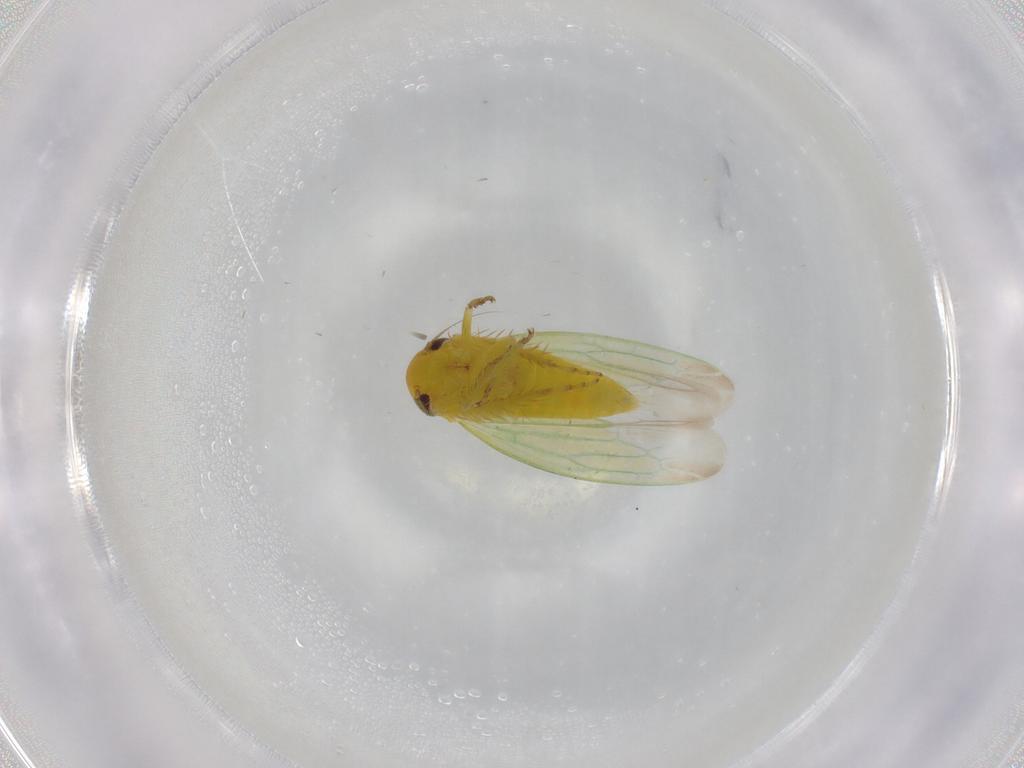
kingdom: Animalia
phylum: Arthropoda
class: Insecta
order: Hemiptera
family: Cicadellidae
